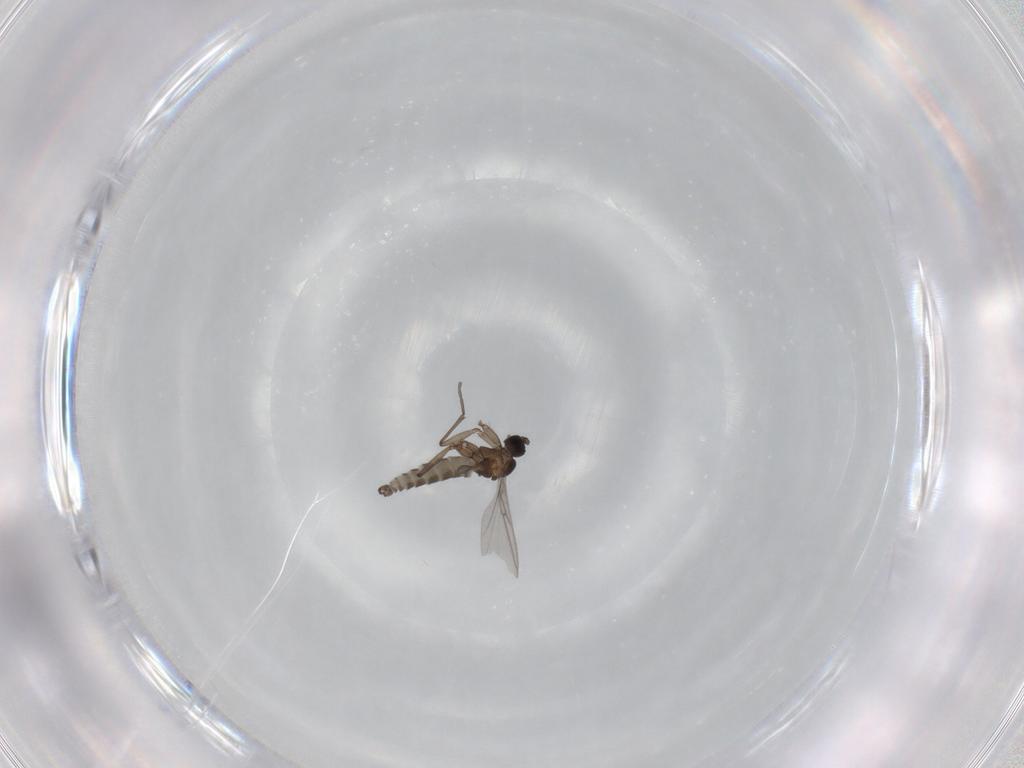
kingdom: Animalia
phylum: Arthropoda
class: Insecta
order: Diptera
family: Sciaridae
